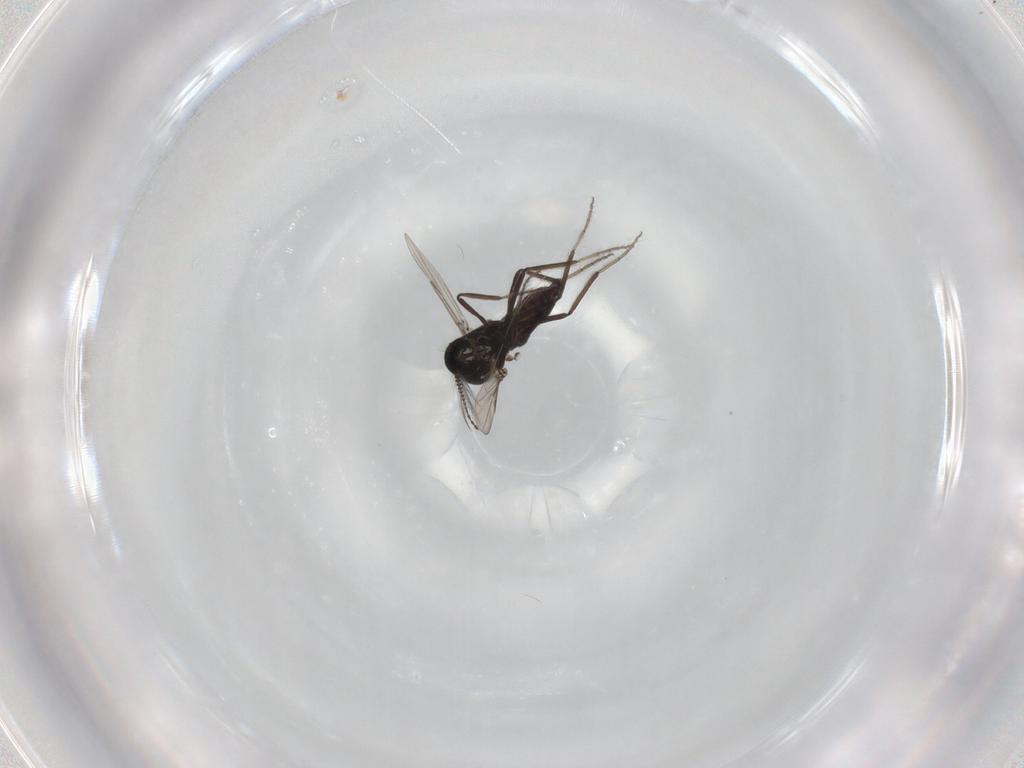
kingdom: Animalia
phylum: Arthropoda
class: Insecta
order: Diptera
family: Ceratopogonidae
